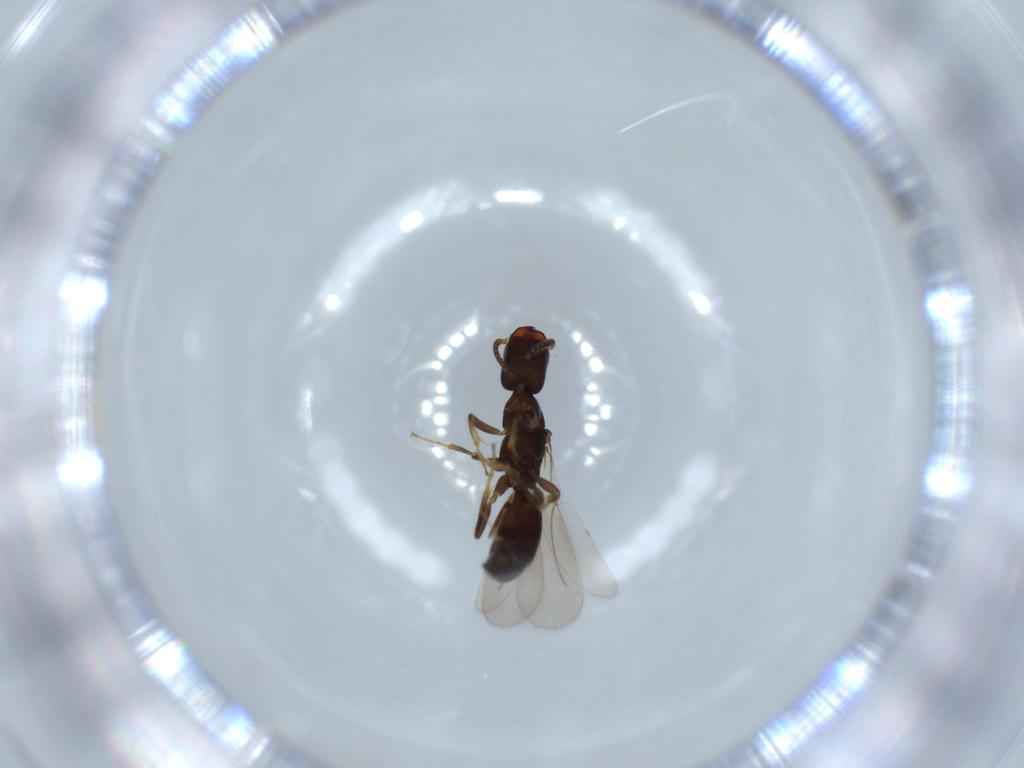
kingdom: Animalia
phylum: Arthropoda
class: Insecta
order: Hymenoptera
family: Bethylidae
